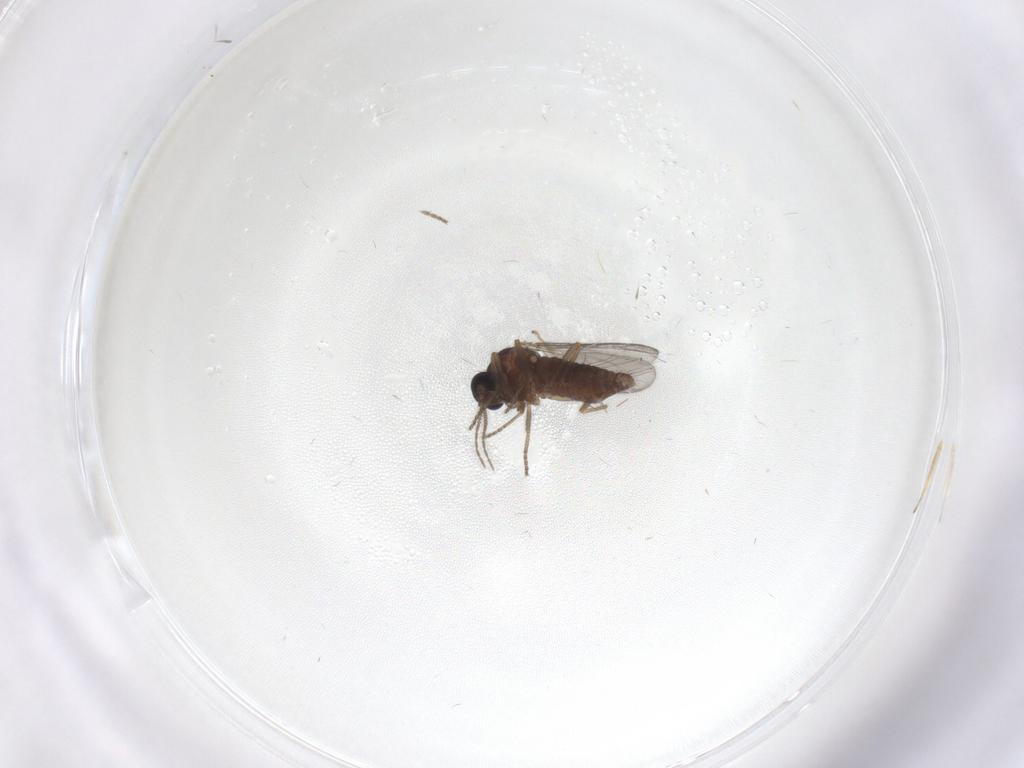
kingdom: Animalia
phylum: Arthropoda
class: Insecta
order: Diptera
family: Ceratopogonidae
